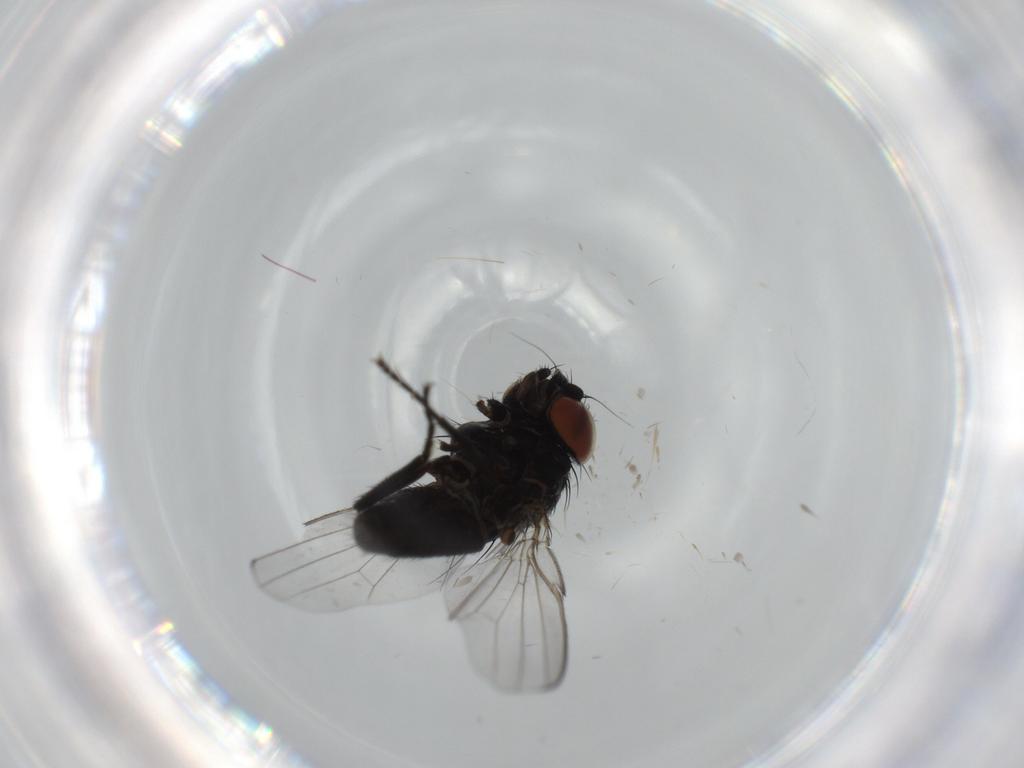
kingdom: Animalia
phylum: Arthropoda
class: Insecta
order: Diptera
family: Milichiidae
